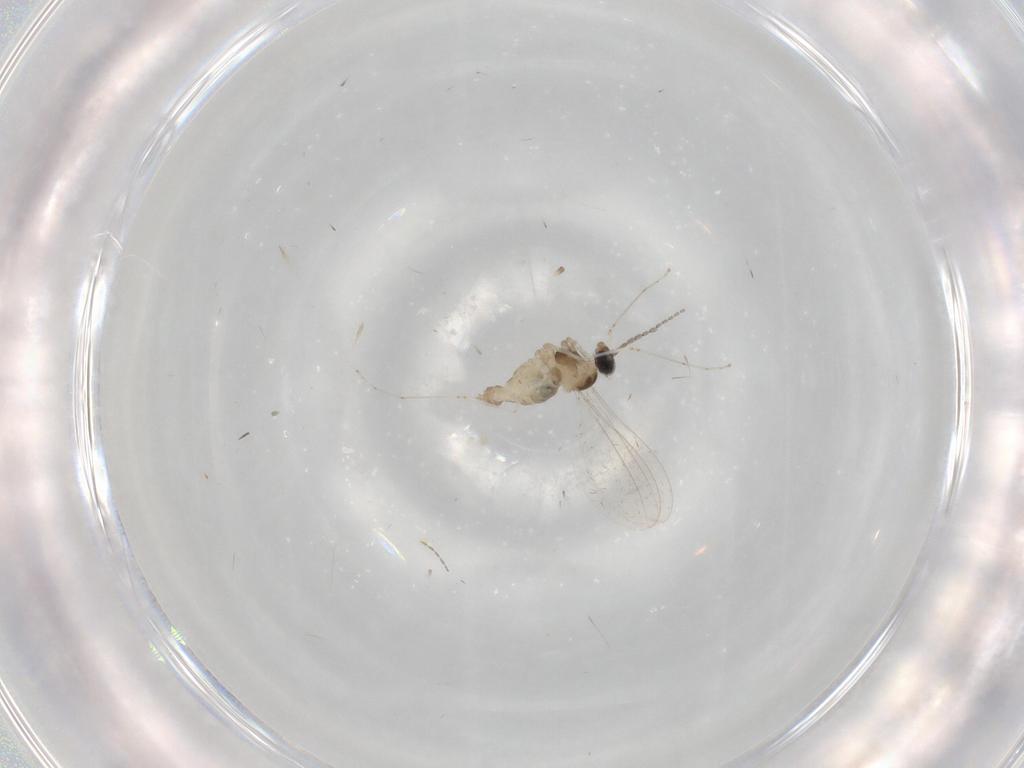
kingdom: Animalia
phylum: Arthropoda
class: Insecta
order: Diptera
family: Cecidomyiidae
